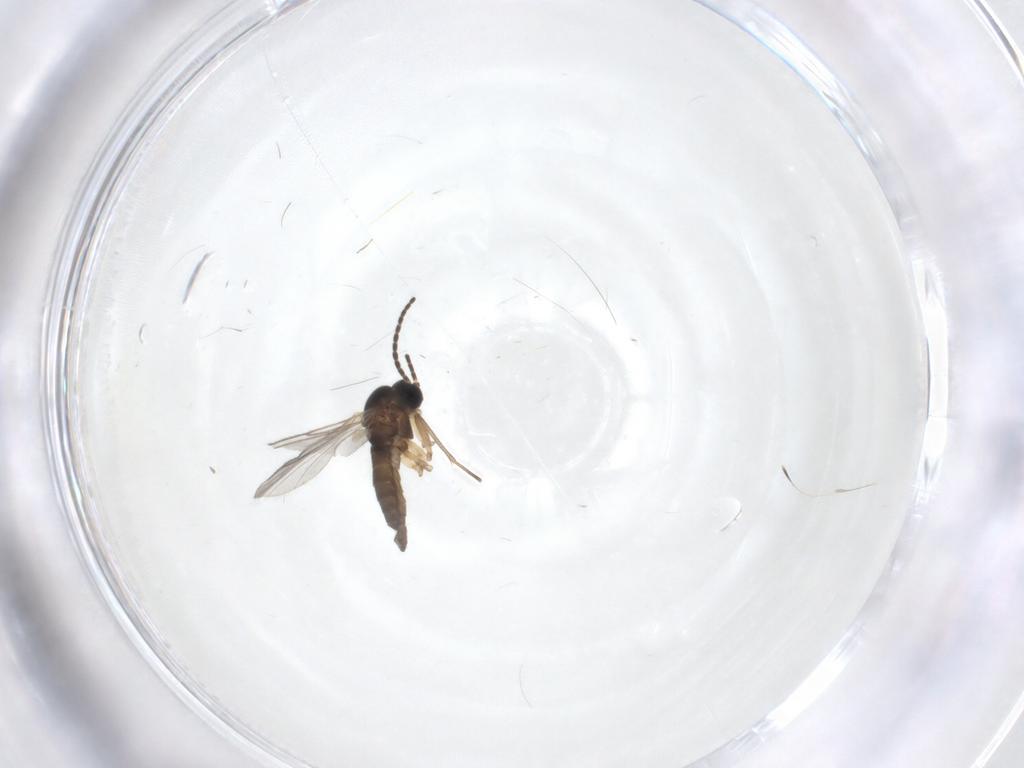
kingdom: Animalia
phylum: Arthropoda
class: Insecta
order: Diptera
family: Sciaridae
